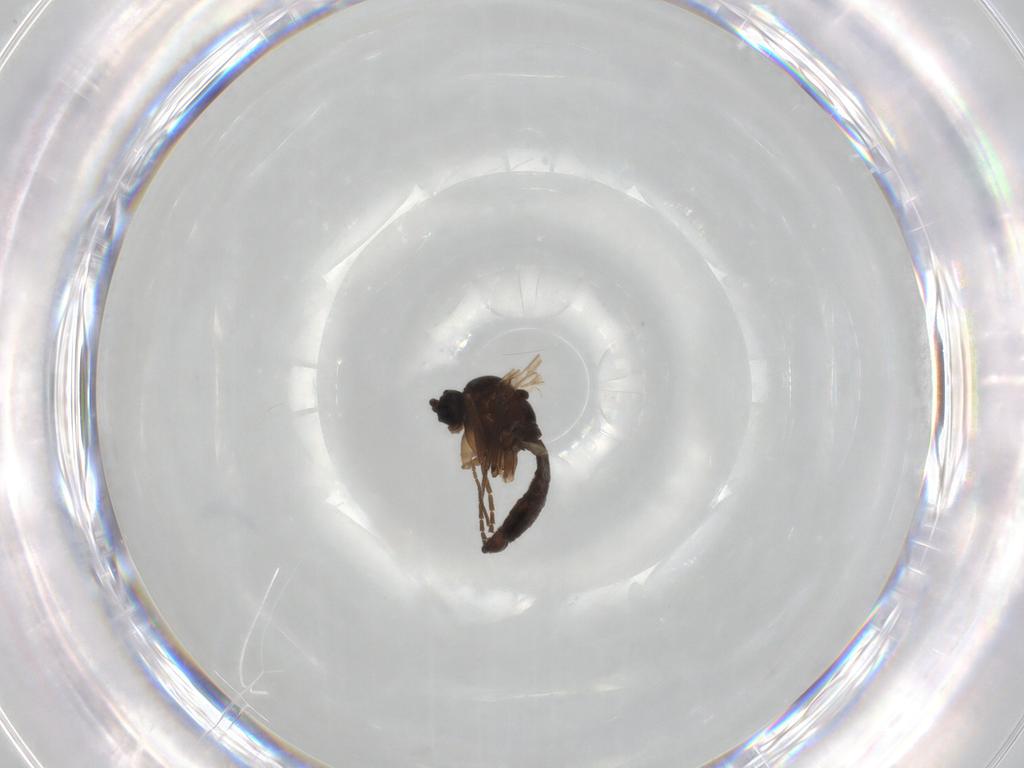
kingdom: Animalia
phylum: Arthropoda
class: Insecta
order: Diptera
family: Sciaridae
